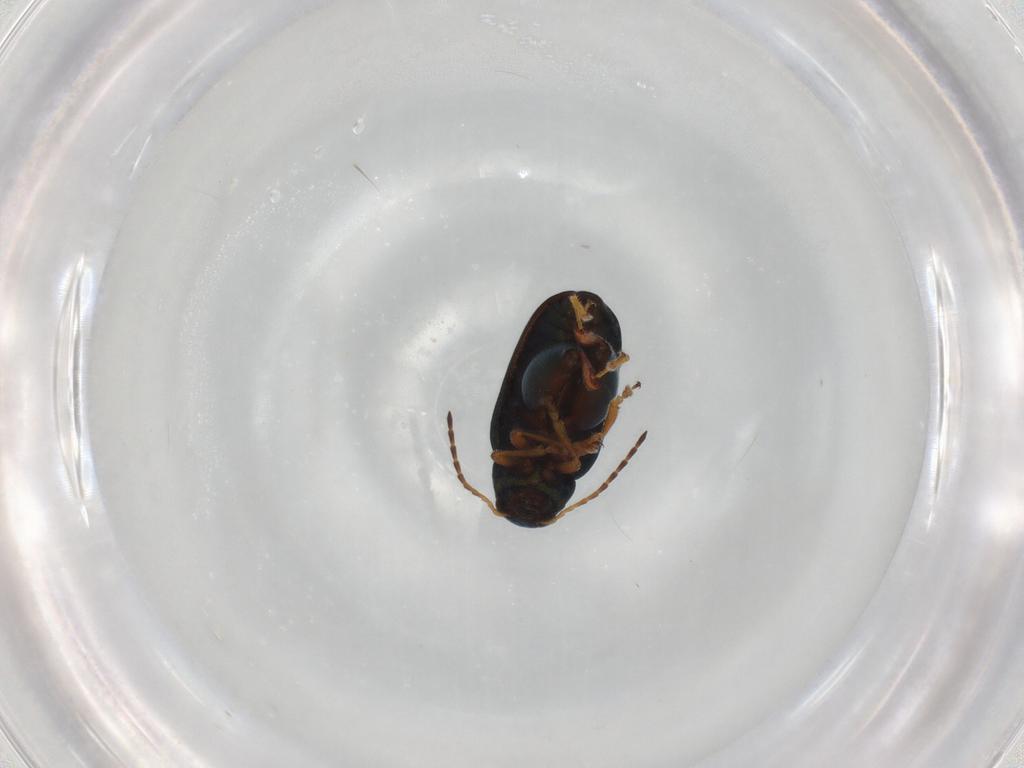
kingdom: Animalia
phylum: Arthropoda
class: Insecta
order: Coleoptera
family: Chrysomelidae
